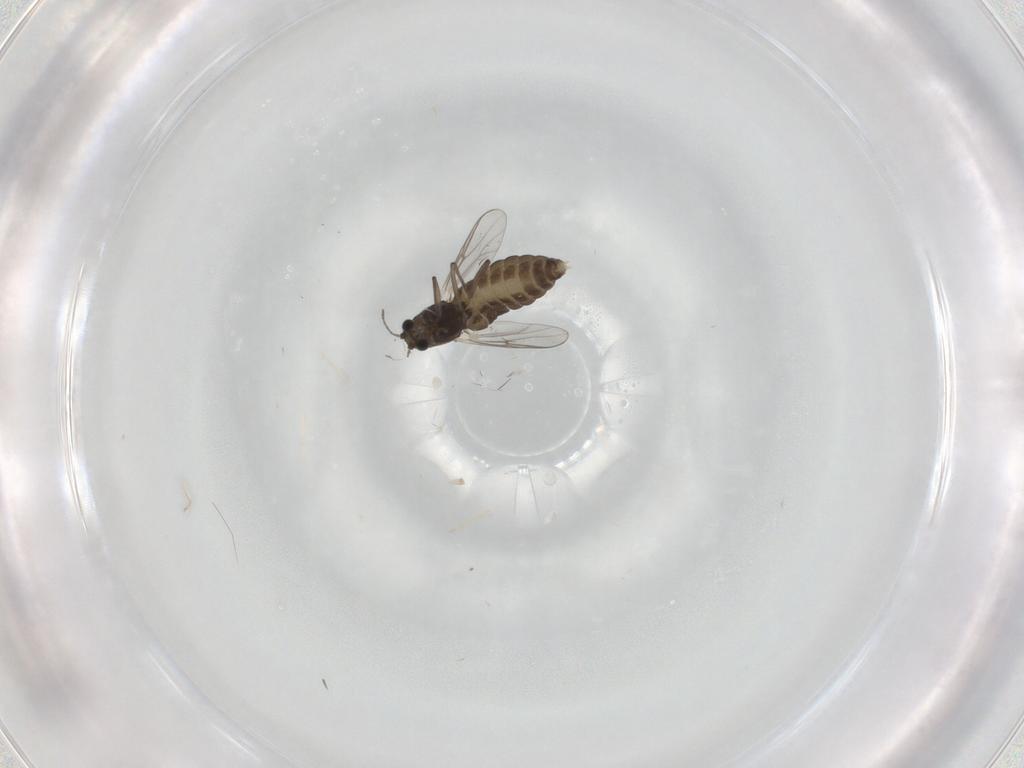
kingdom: Animalia
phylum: Arthropoda
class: Insecta
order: Diptera
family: Chironomidae
